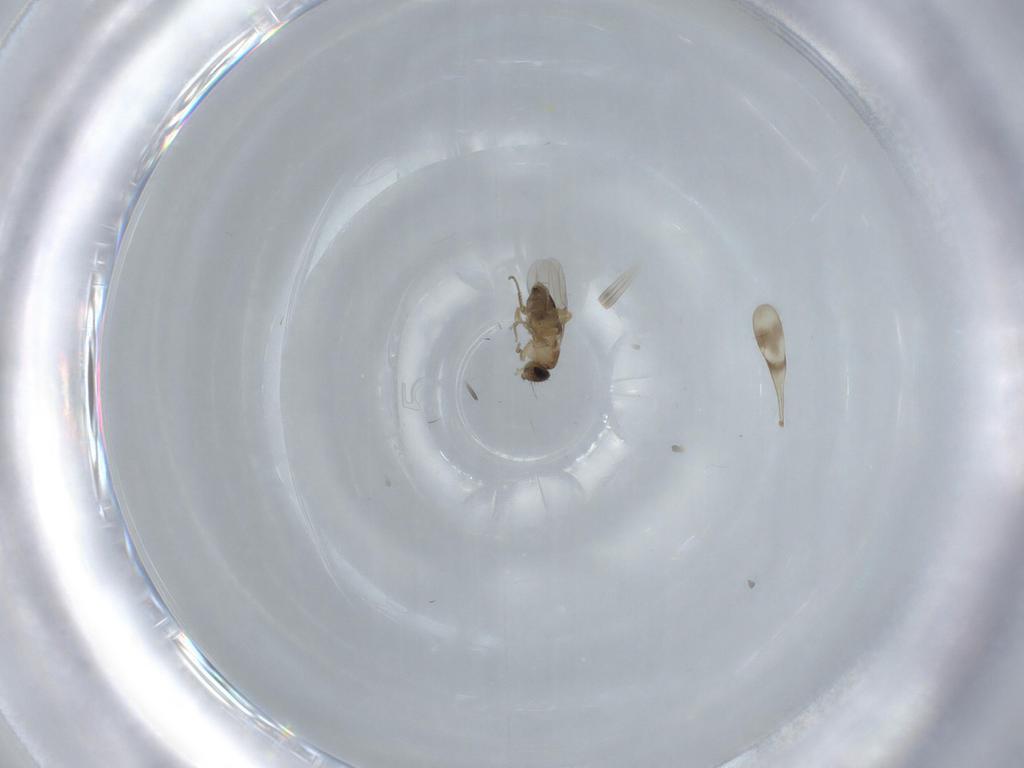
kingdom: Animalia
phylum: Arthropoda
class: Insecta
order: Diptera
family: Phoridae
